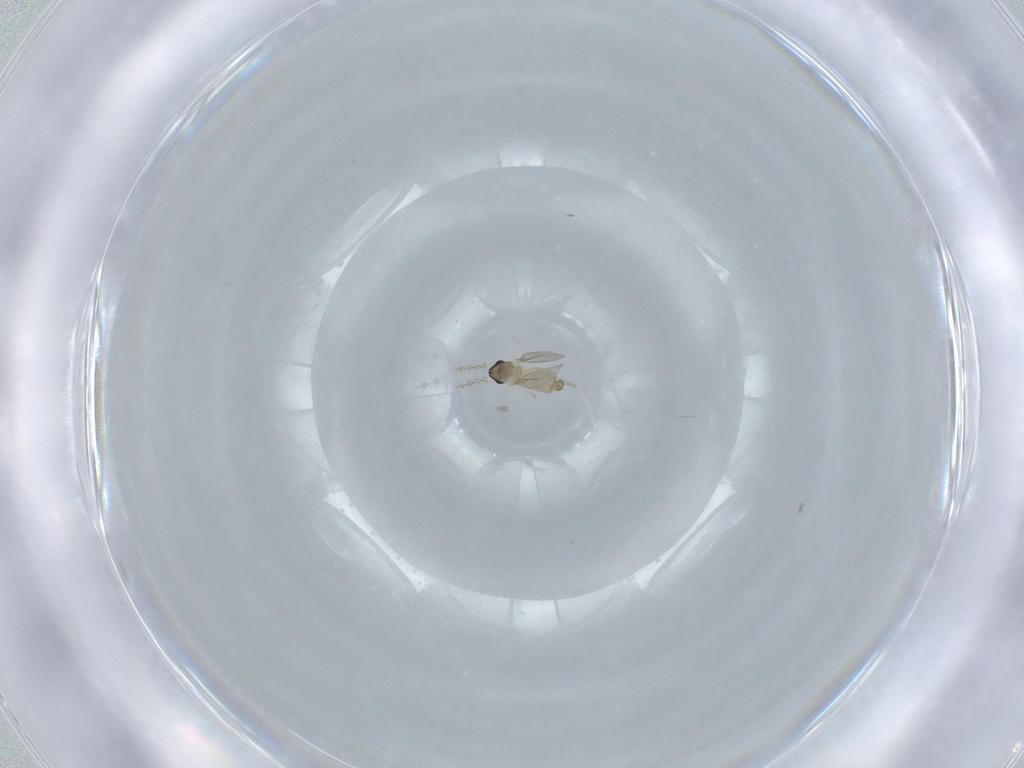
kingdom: Animalia
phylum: Arthropoda
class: Insecta
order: Diptera
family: Cecidomyiidae
